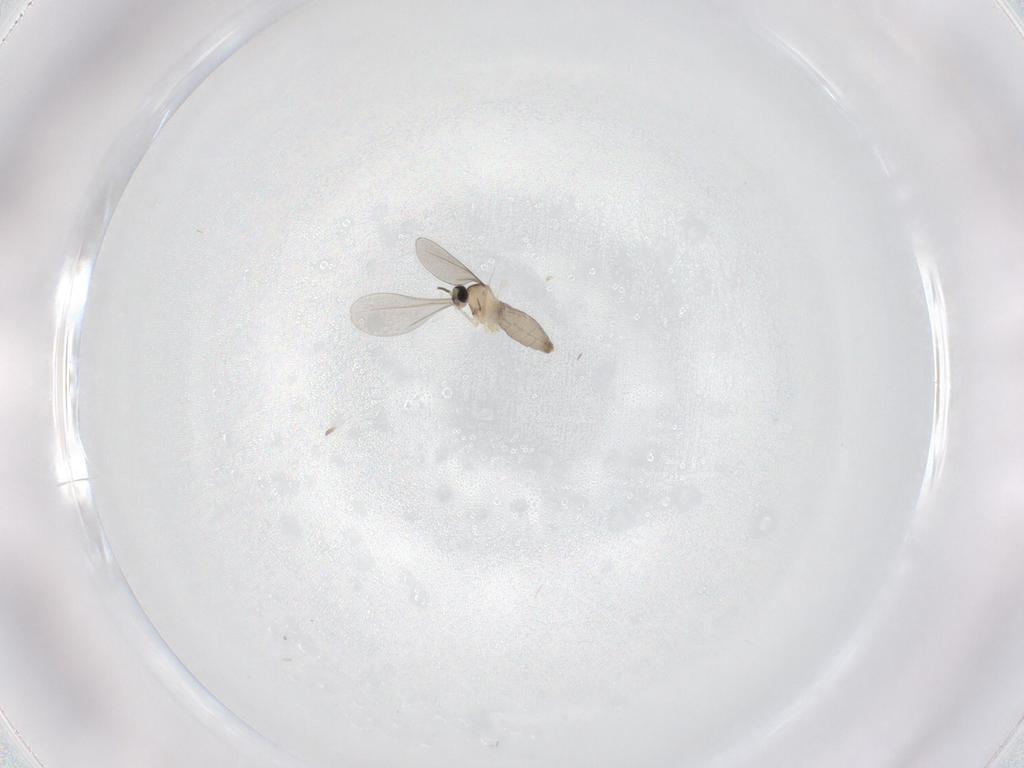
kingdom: Animalia
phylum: Arthropoda
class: Insecta
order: Diptera
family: Cecidomyiidae
